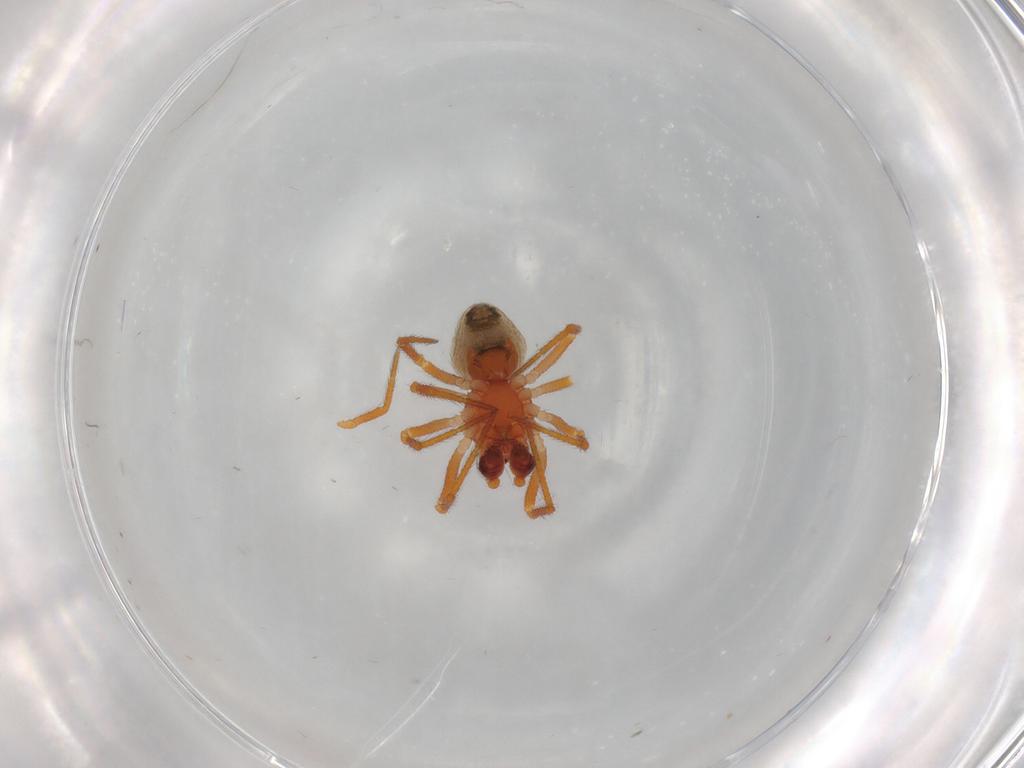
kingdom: Animalia
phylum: Arthropoda
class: Arachnida
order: Araneae
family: Theridiidae
